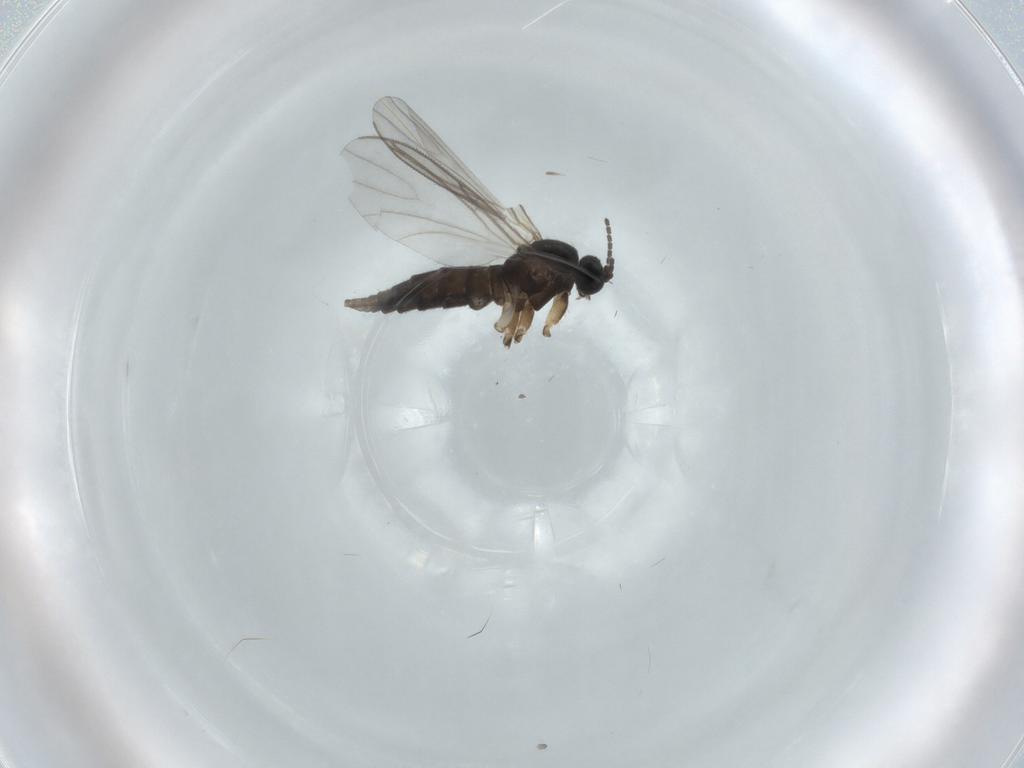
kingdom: Animalia
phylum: Arthropoda
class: Insecta
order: Diptera
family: Sciaridae
